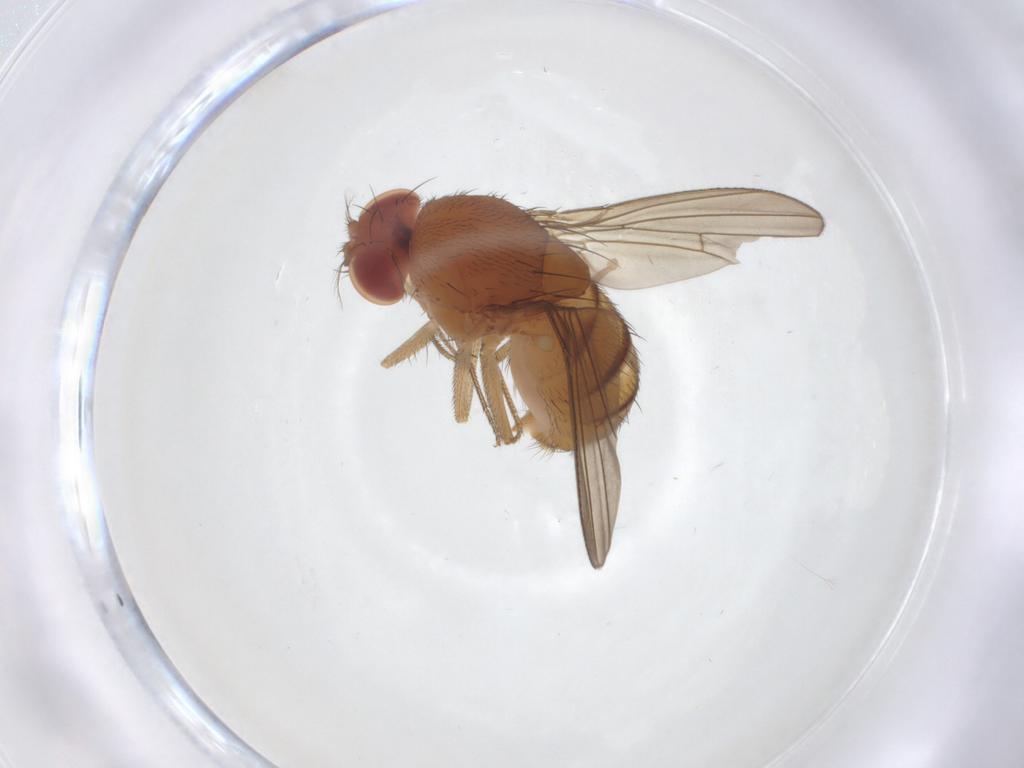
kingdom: Animalia
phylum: Arthropoda
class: Insecta
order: Diptera
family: Drosophilidae
